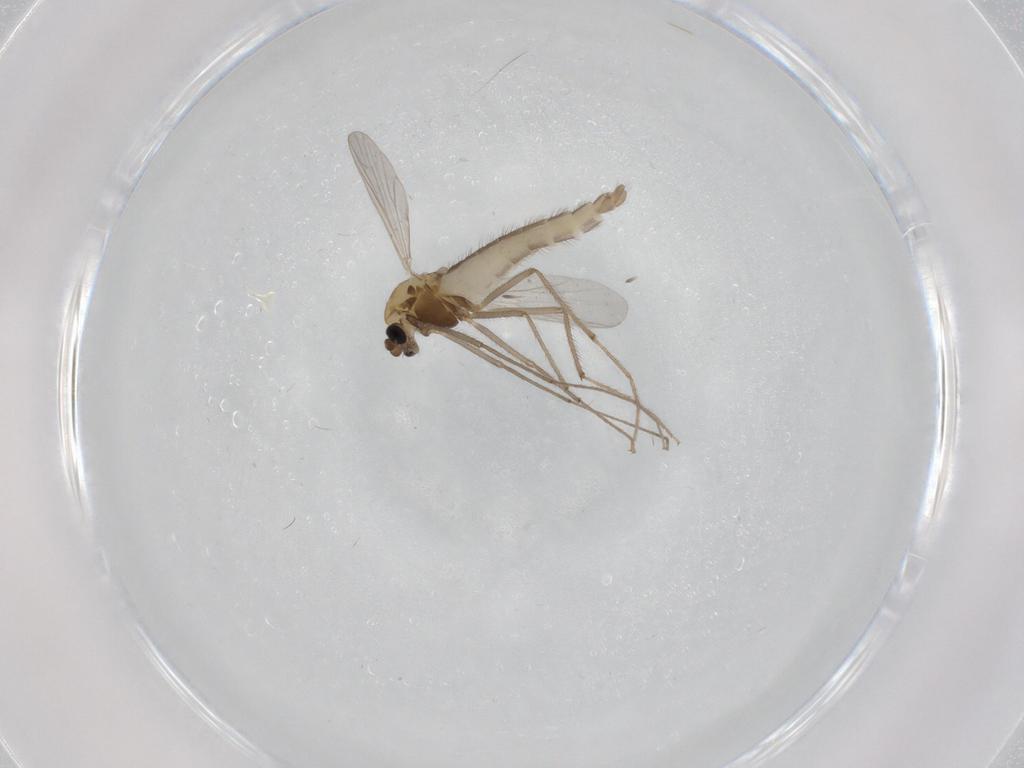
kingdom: Animalia
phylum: Arthropoda
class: Insecta
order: Diptera
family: Chironomidae
